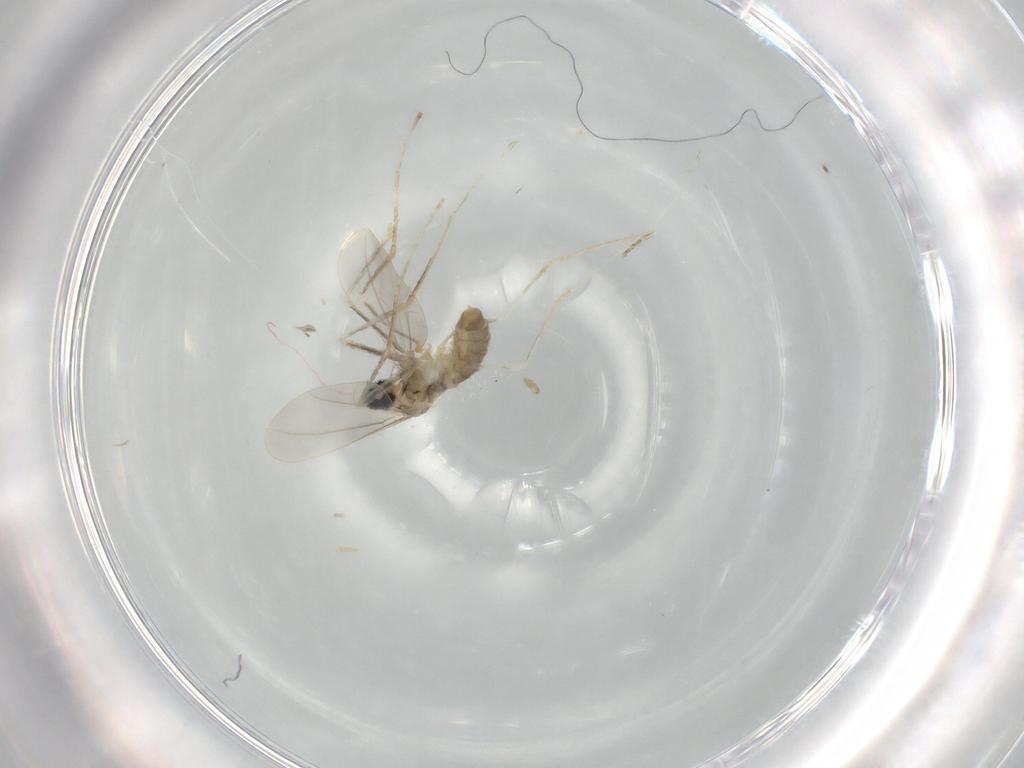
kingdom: Animalia
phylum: Arthropoda
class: Insecta
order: Diptera
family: Cecidomyiidae
